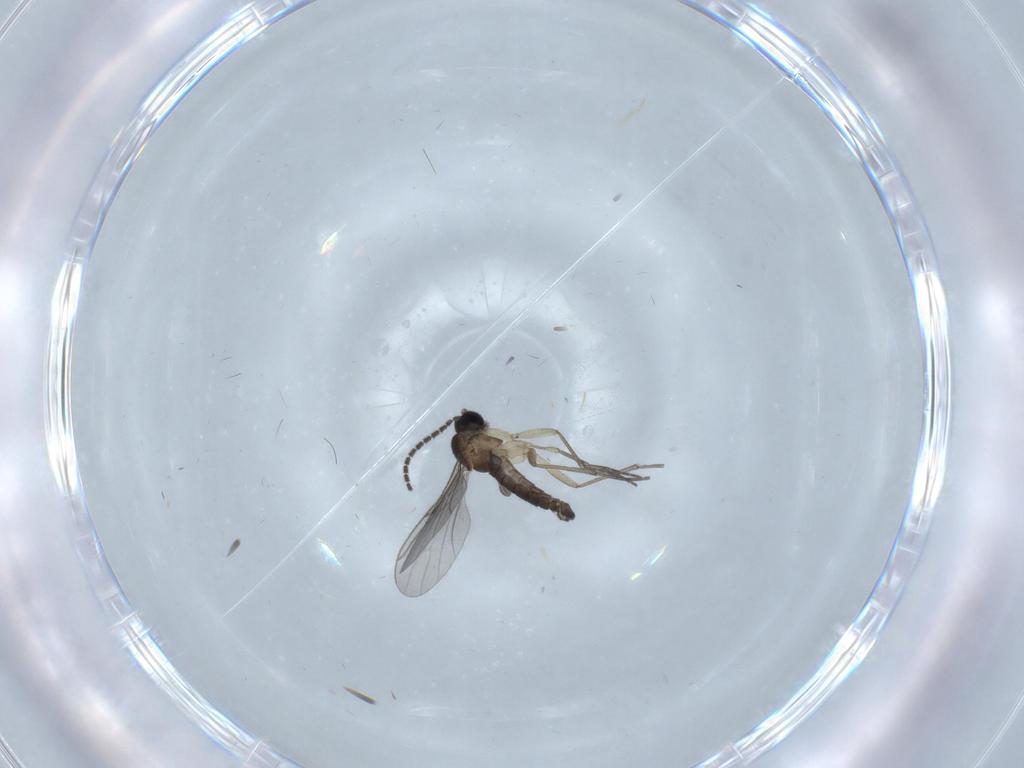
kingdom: Animalia
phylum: Arthropoda
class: Insecta
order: Diptera
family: Sciaridae
